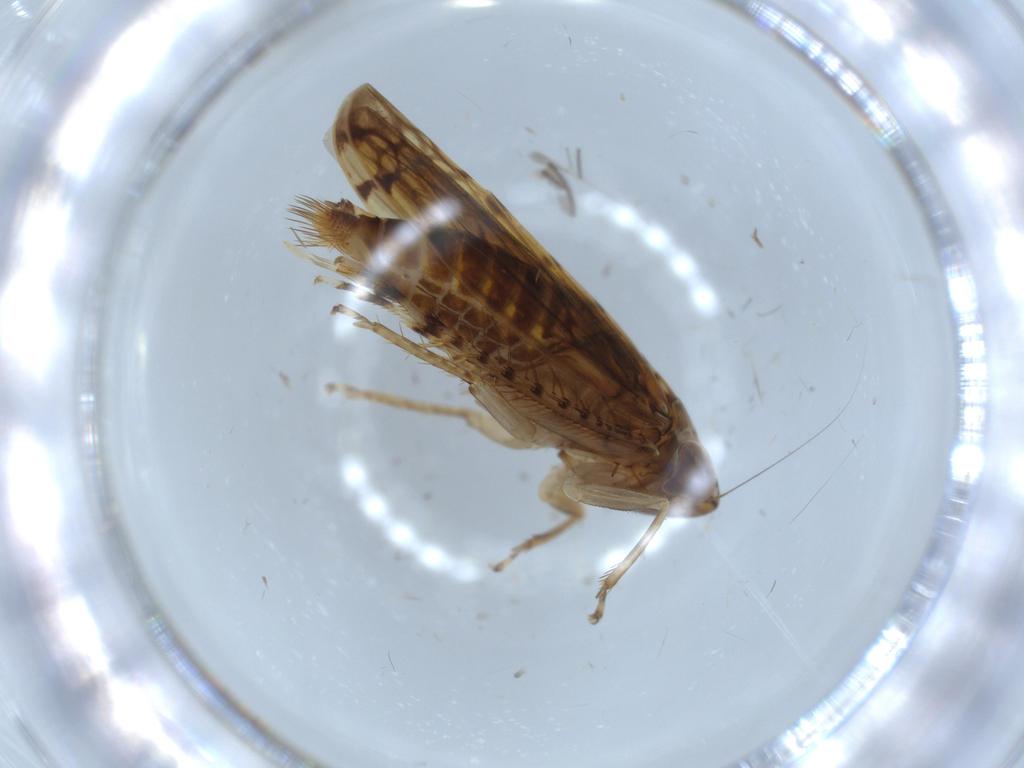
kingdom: Animalia
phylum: Arthropoda
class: Insecta
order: Hemiptera
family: Cicadellidae
